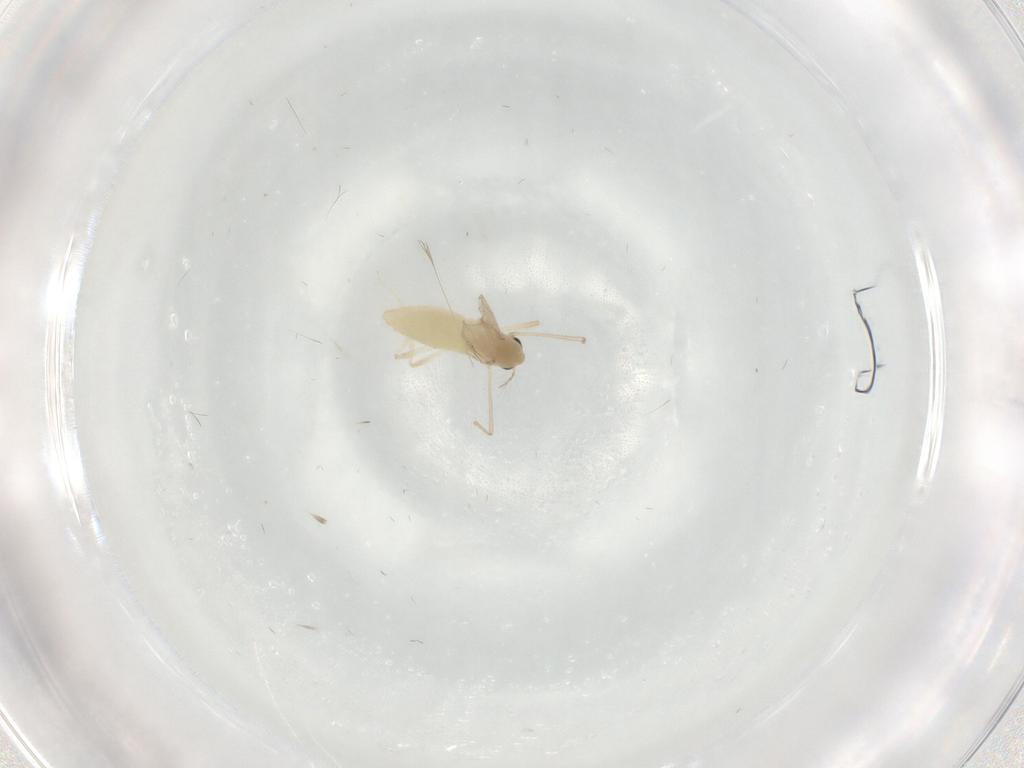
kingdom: Animalia
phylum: Arthropoda
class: Insecta
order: Diptera
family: Chironomidae
